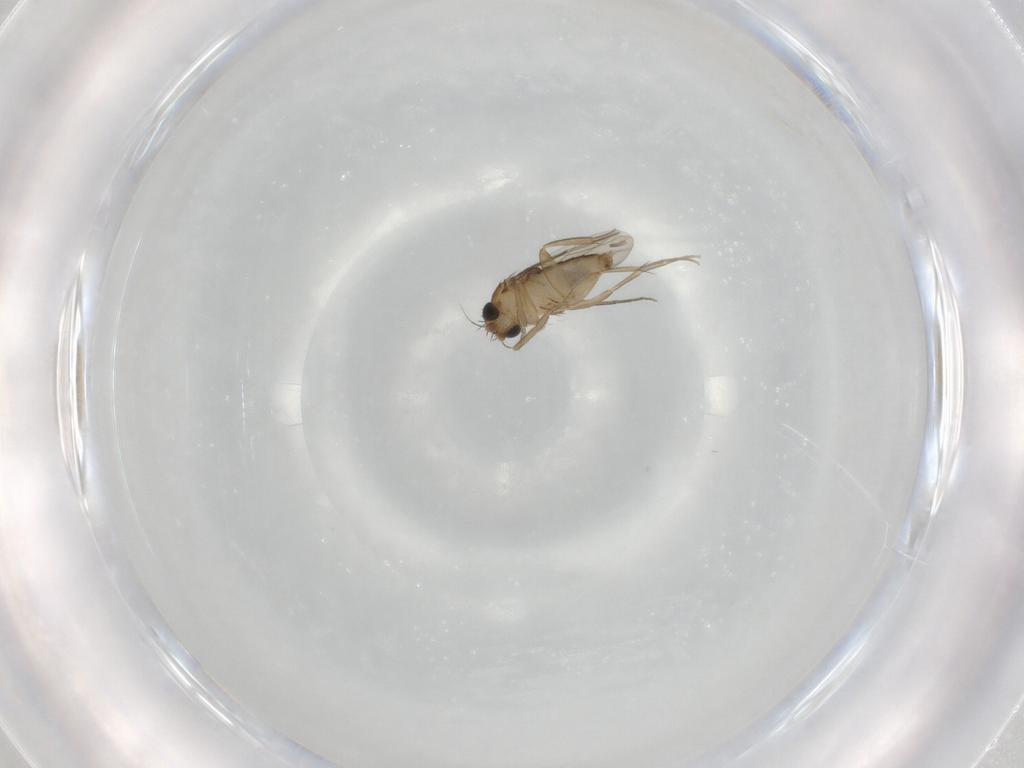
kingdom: Animalia
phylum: Arthropoda
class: Insecta
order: Diptera
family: Phoridae
